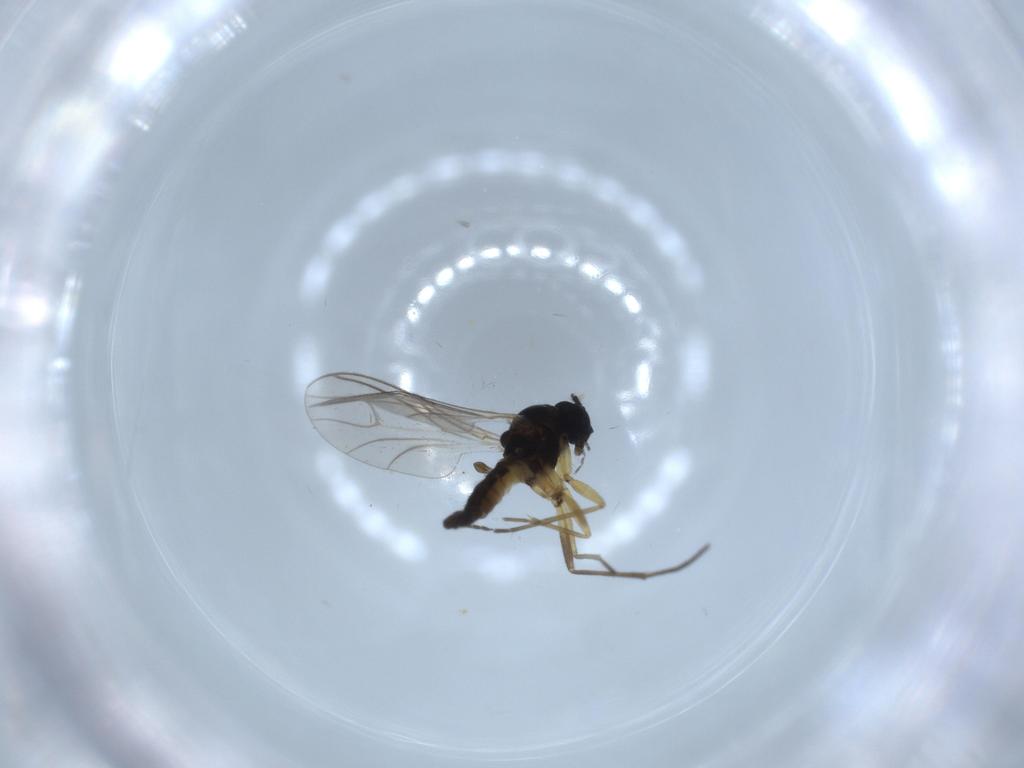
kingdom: Animalia
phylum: Arthropoda
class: Insecta
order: Diptera
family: Sciaridae
